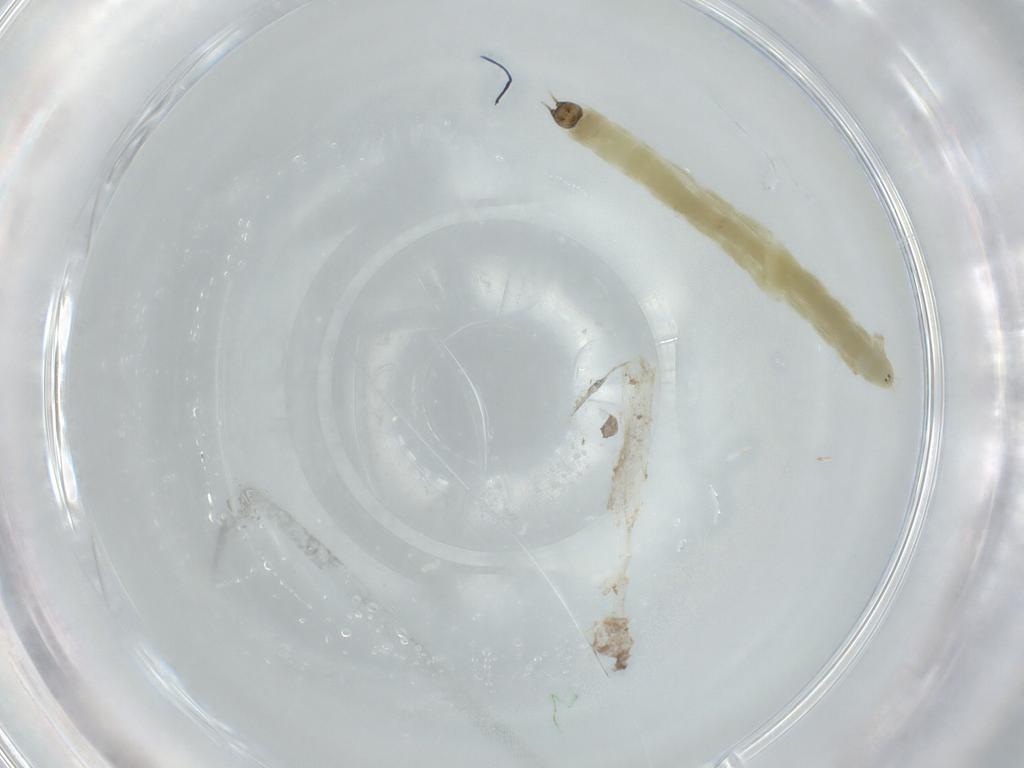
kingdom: Animalia
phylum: Arthropoda
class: Insecta
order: Diptera
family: Chironomidae
